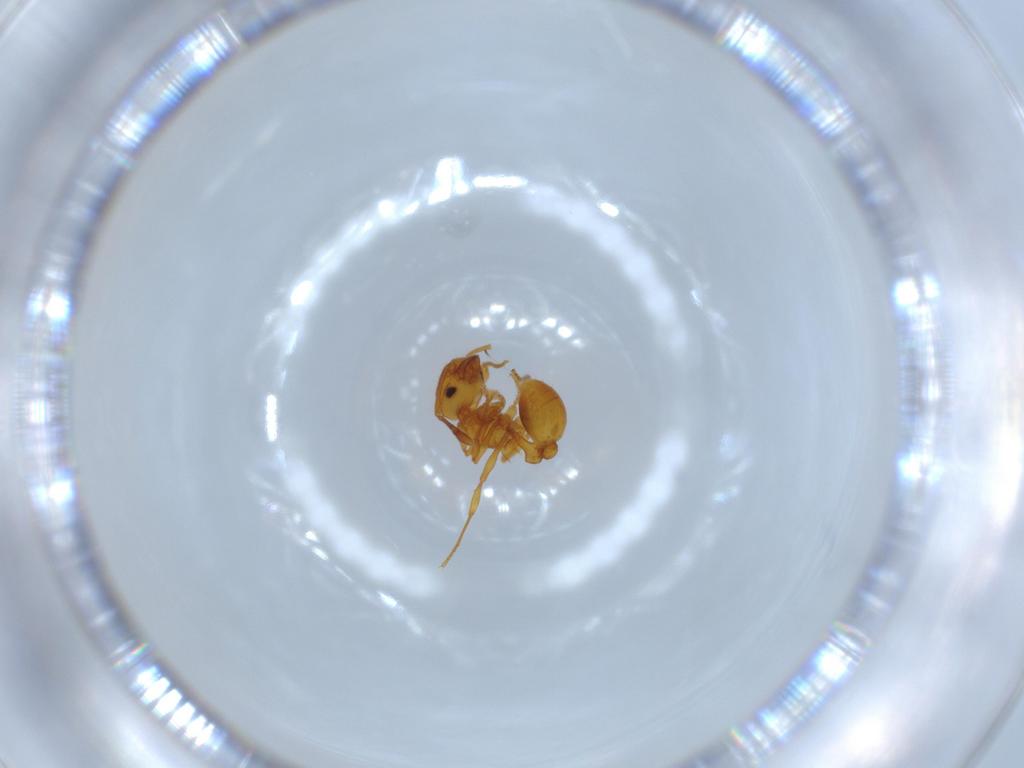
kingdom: Animalia
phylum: Arthropoda
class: Insecta
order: Hymenoptera
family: Formicidae
